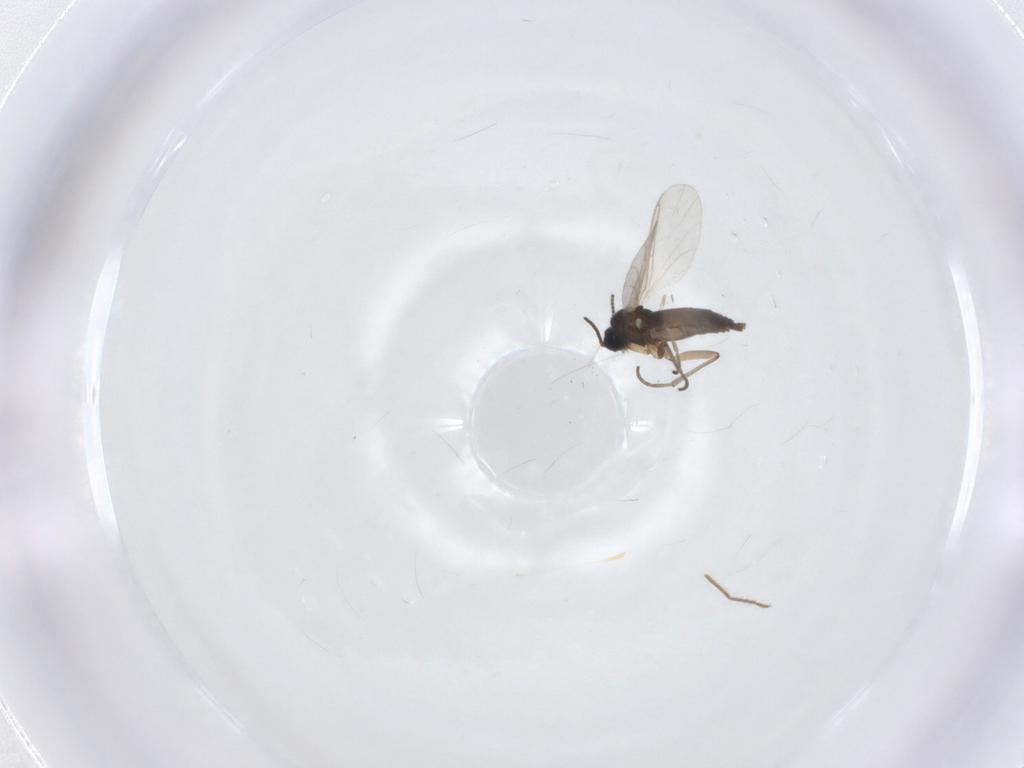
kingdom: Animalia
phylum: Arthropoda
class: Insecta
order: Diptera
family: Sciaridae
